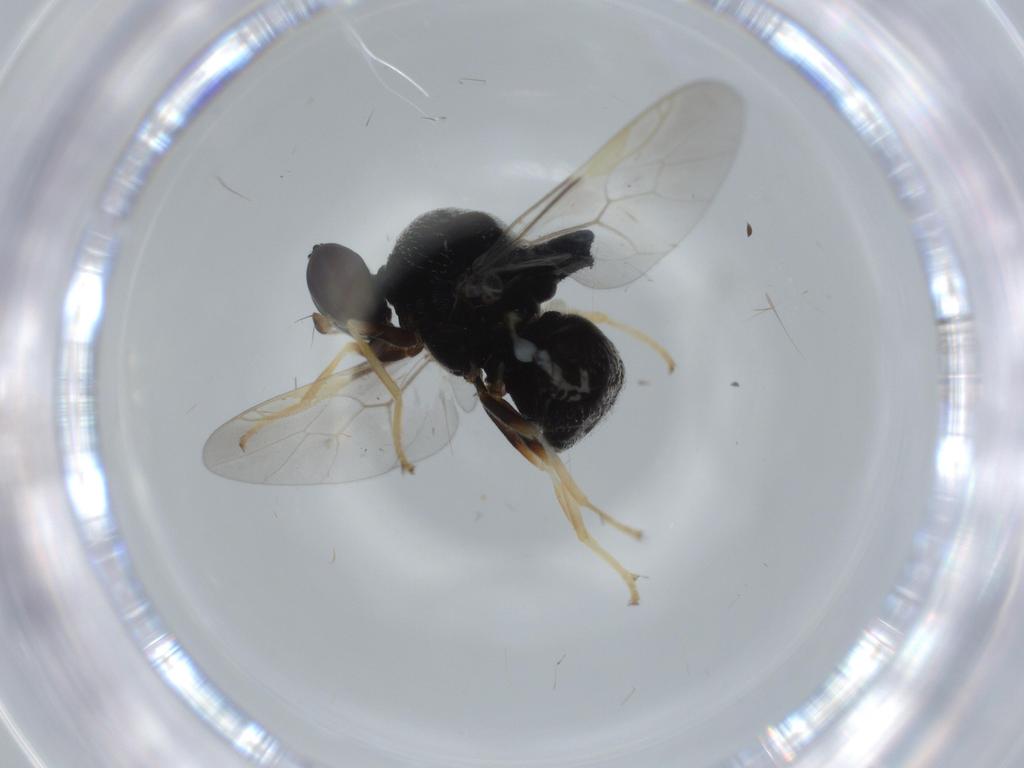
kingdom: Animalia
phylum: Arthropoda
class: Insecta
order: Diptera
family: Stratiomyidae
